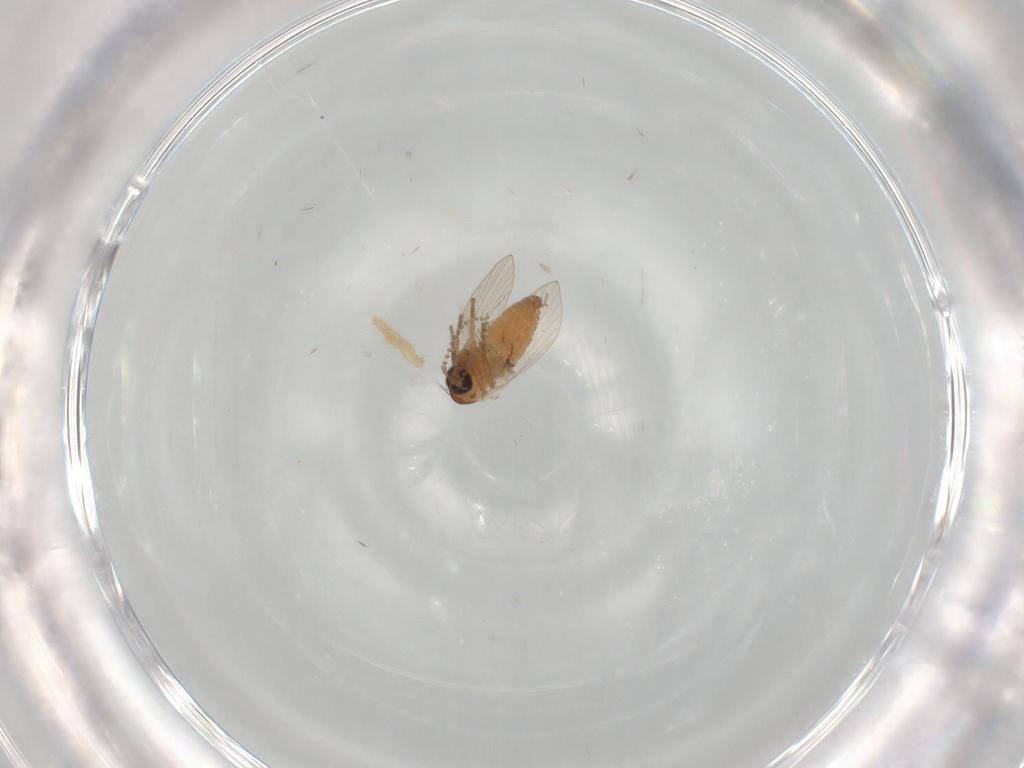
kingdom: Animalia
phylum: Arthropoda
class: Insecta
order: Diptera
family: Cecidomyiidae
